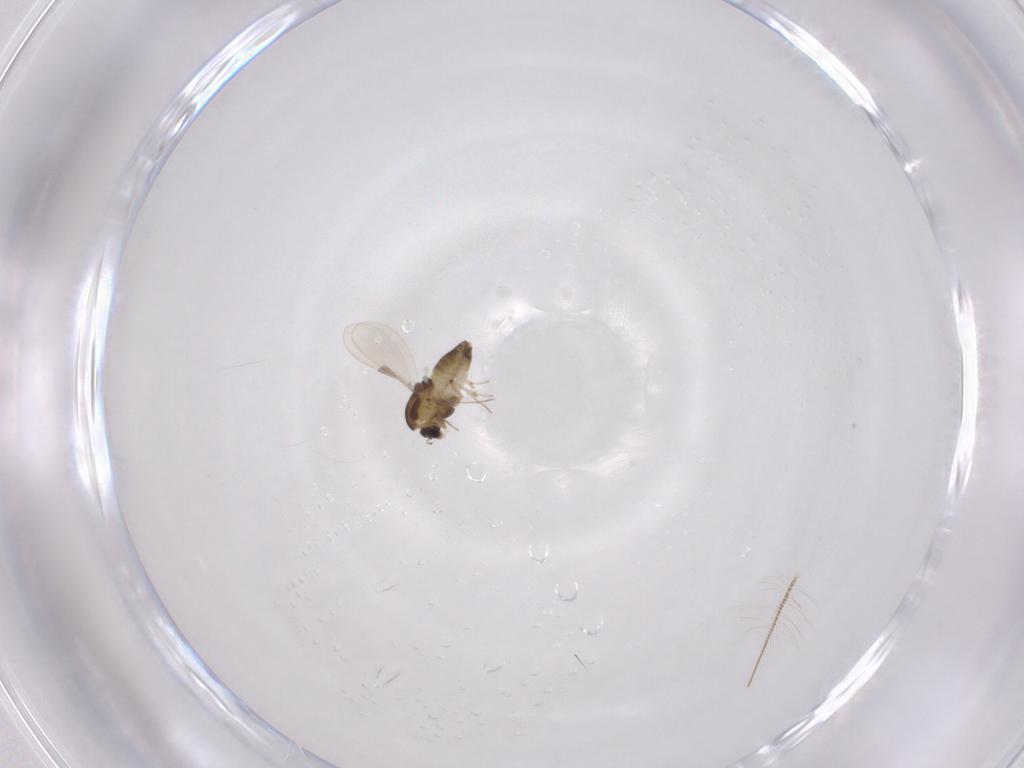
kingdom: Animalia
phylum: Arthropoda
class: Insecta
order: Diptera
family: Chironomidae
